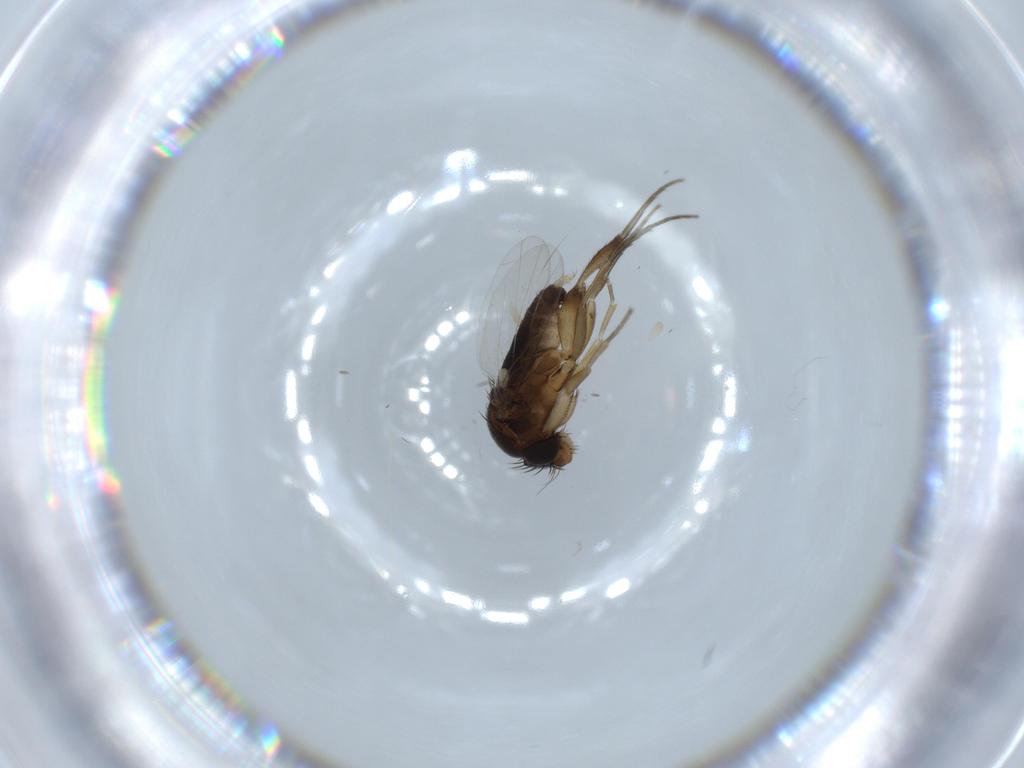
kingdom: Animalia
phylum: Arthropoda
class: Insecta
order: Diptera
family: Phoridae
